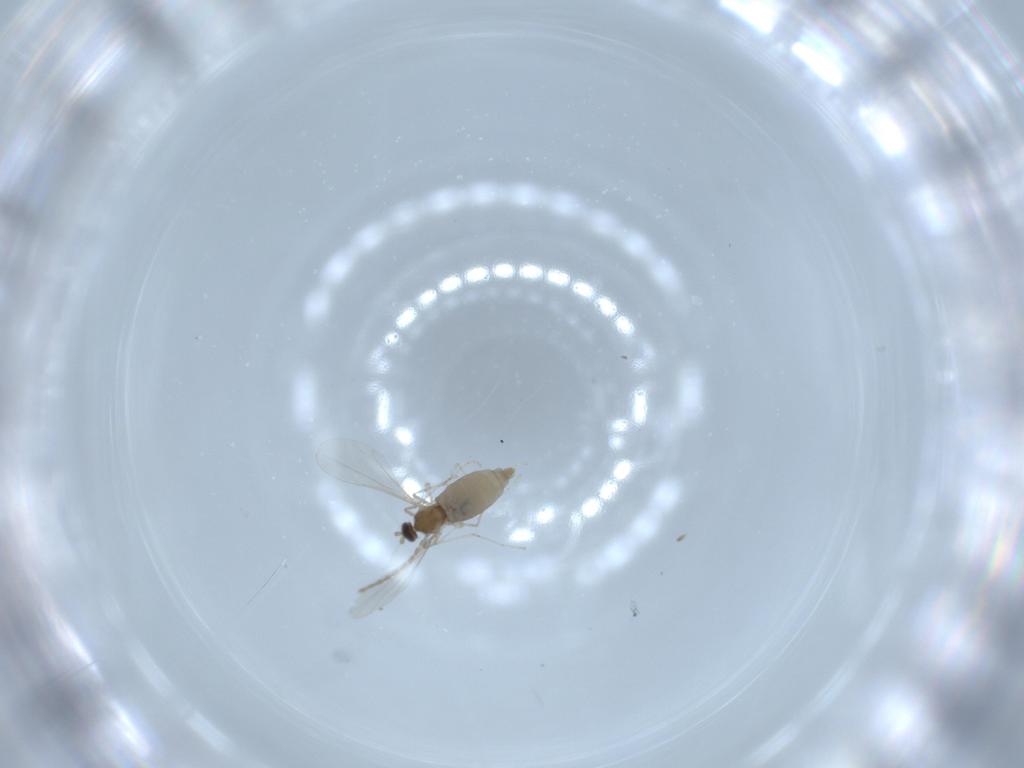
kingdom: Animalia
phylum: Arthropoda
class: Insecta
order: Diptera
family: Cecidomyiidae
